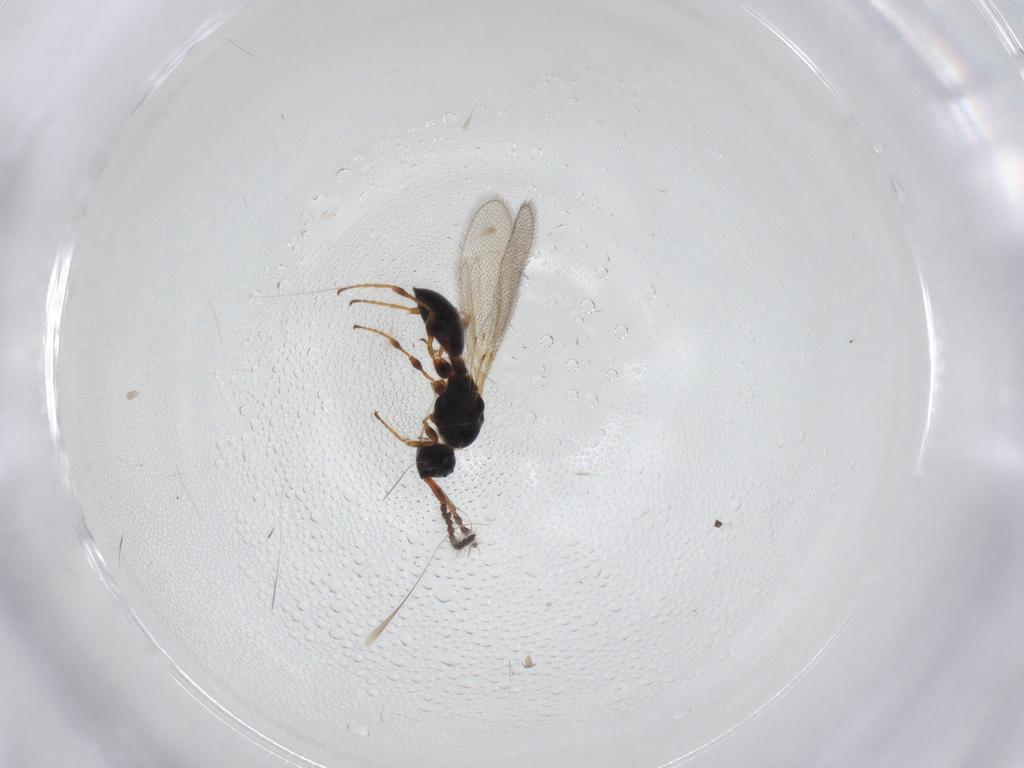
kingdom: Animalia
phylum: Arthropoda
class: Insecta
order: Hymenoptera
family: Diapriidae
